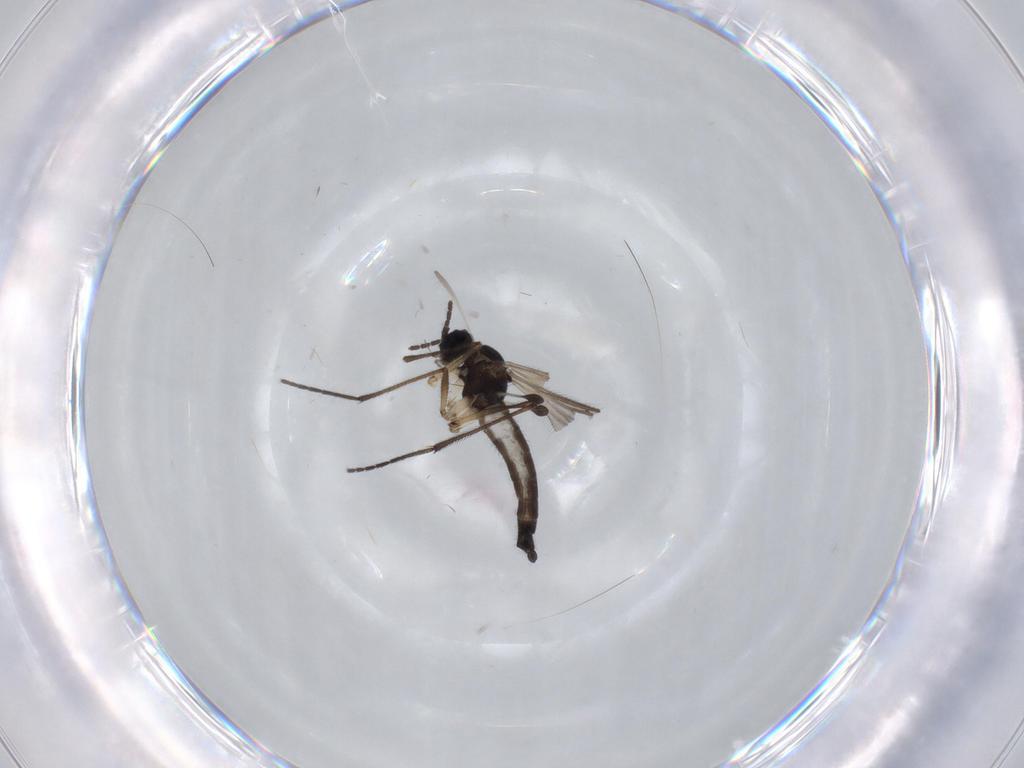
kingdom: Animalia
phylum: Arthropoda
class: Insecta
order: Diptera
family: Sciaridae
